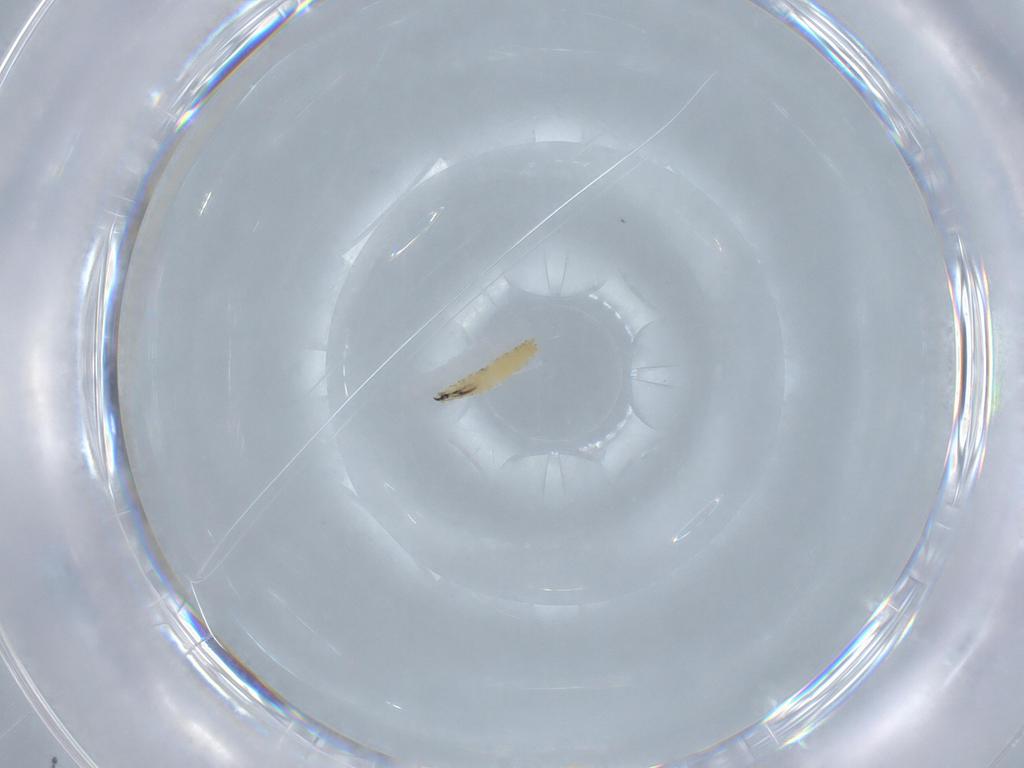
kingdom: Animalia
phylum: Arthropoda
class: Insecta
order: Diptera
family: Sarcophagidae
